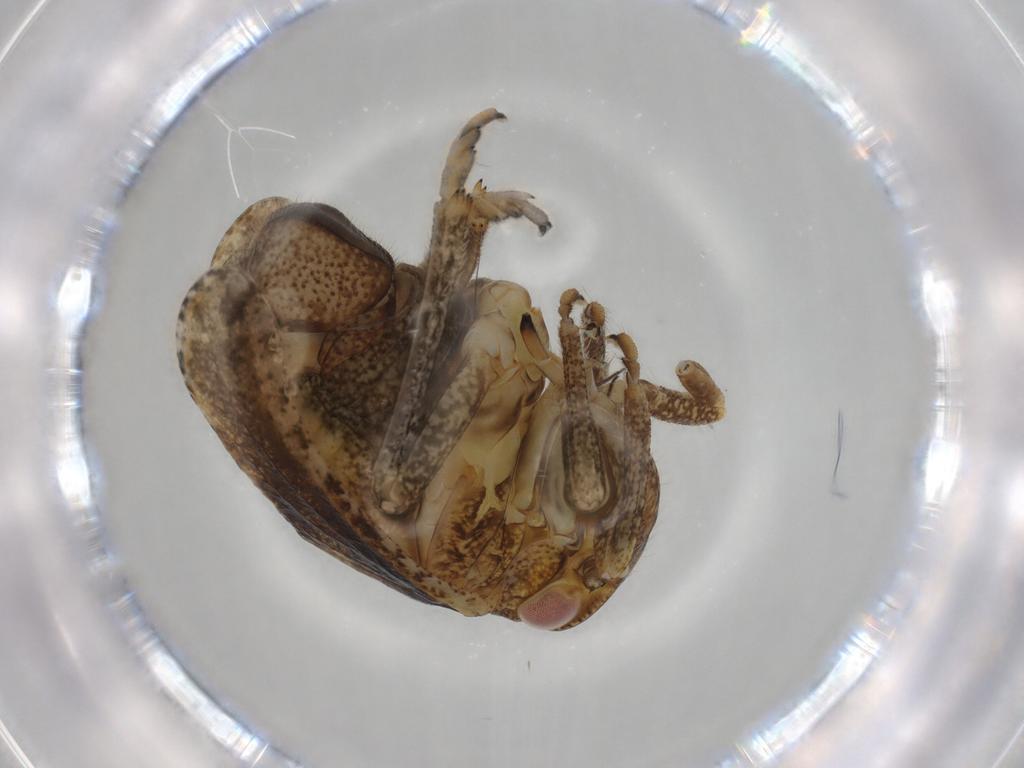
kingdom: Animalia
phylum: Arthropoda
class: Insecta
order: Hemiptera
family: Tropiduchidae
